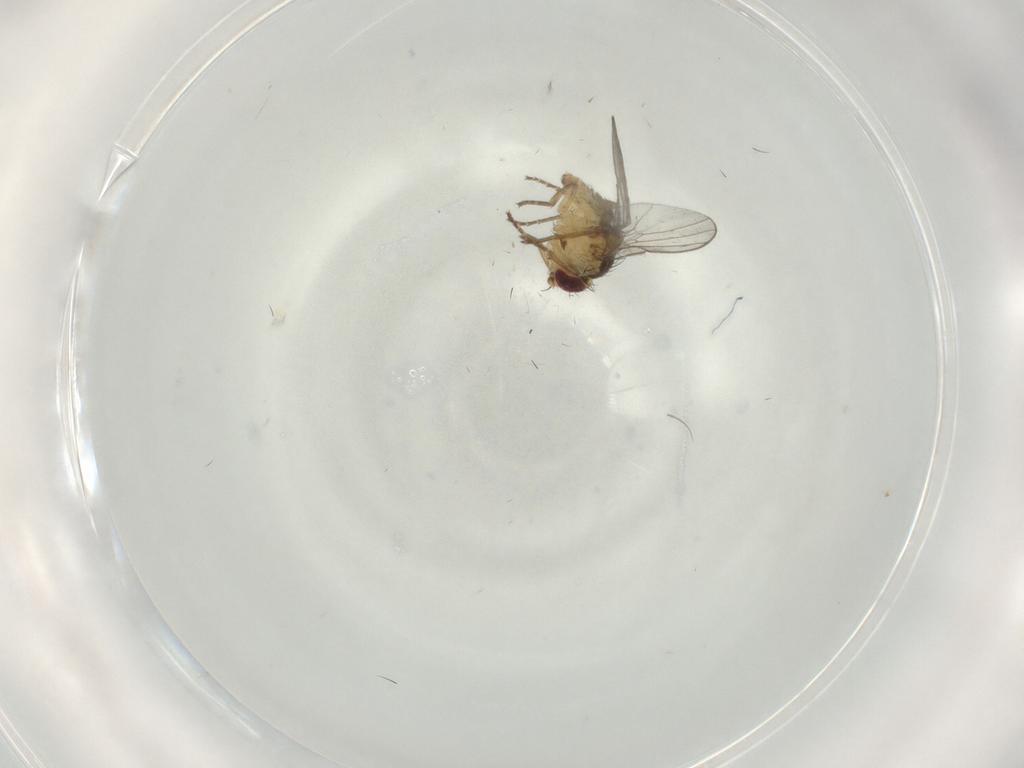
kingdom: Animalia
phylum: Arthropoda
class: Insecta
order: Diptera
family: Agromyzidae
